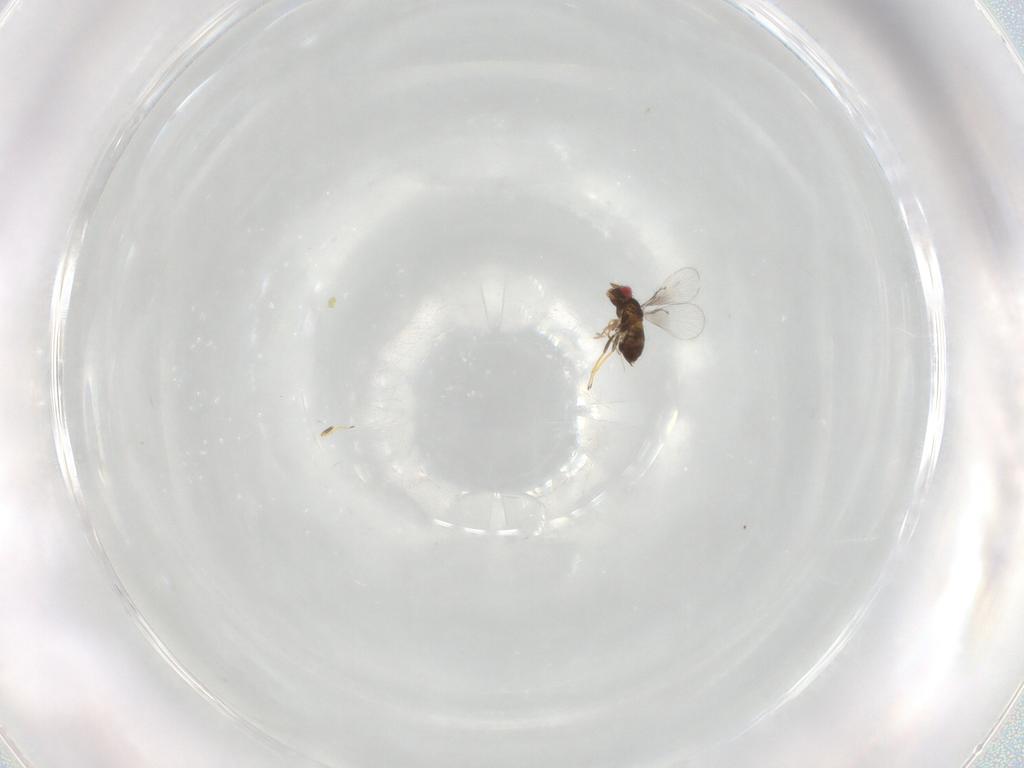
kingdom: Animalia
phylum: Arthropoda
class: Insecta
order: Hymenoptera
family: Trichogrammatidae
